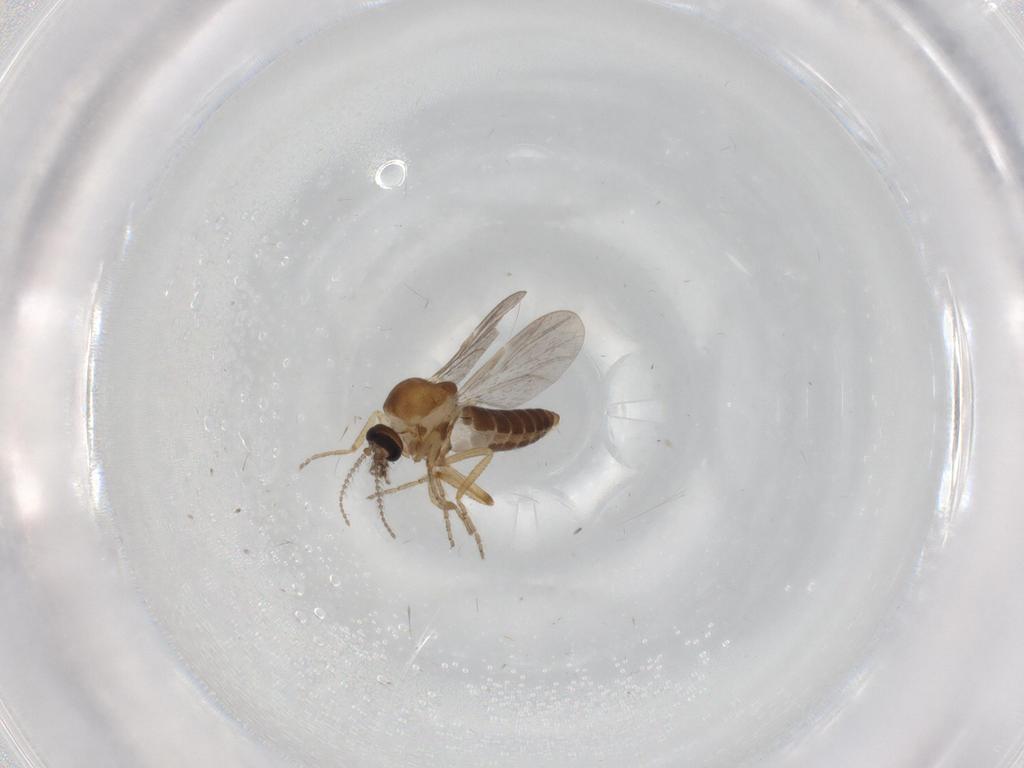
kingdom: Animalia
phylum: Arthropoda
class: Insecta
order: Diptera
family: Ceratopogonidae
